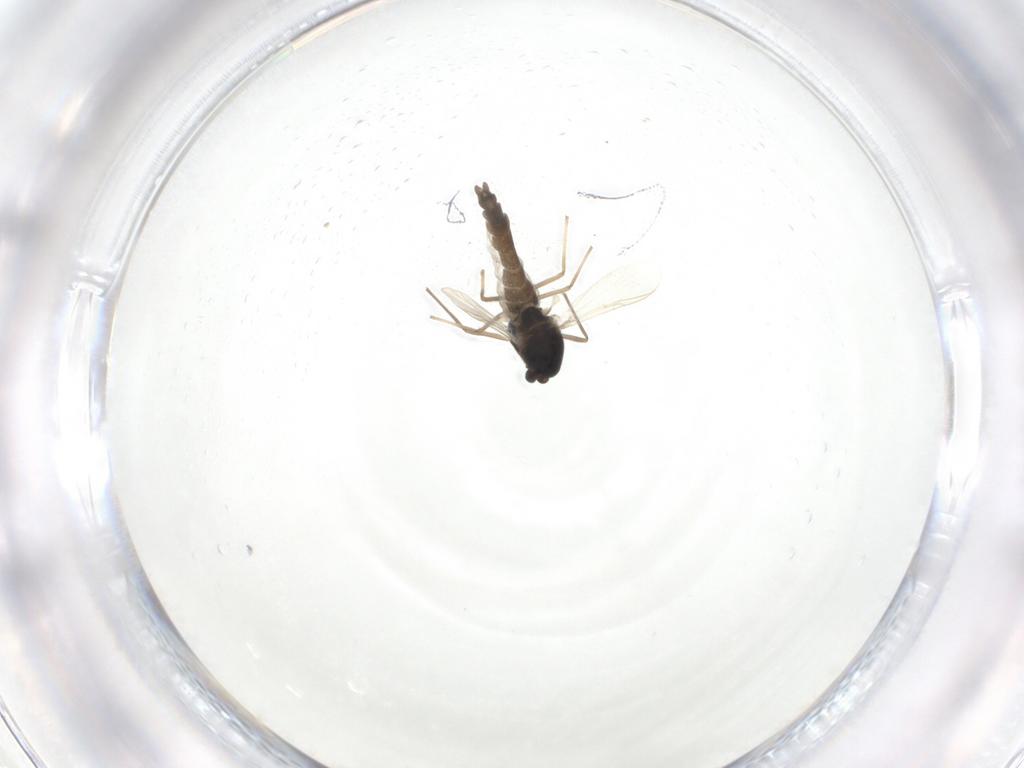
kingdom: Animalia
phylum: Arthropoda
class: Insecta
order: Diptera
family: Chironomidae
